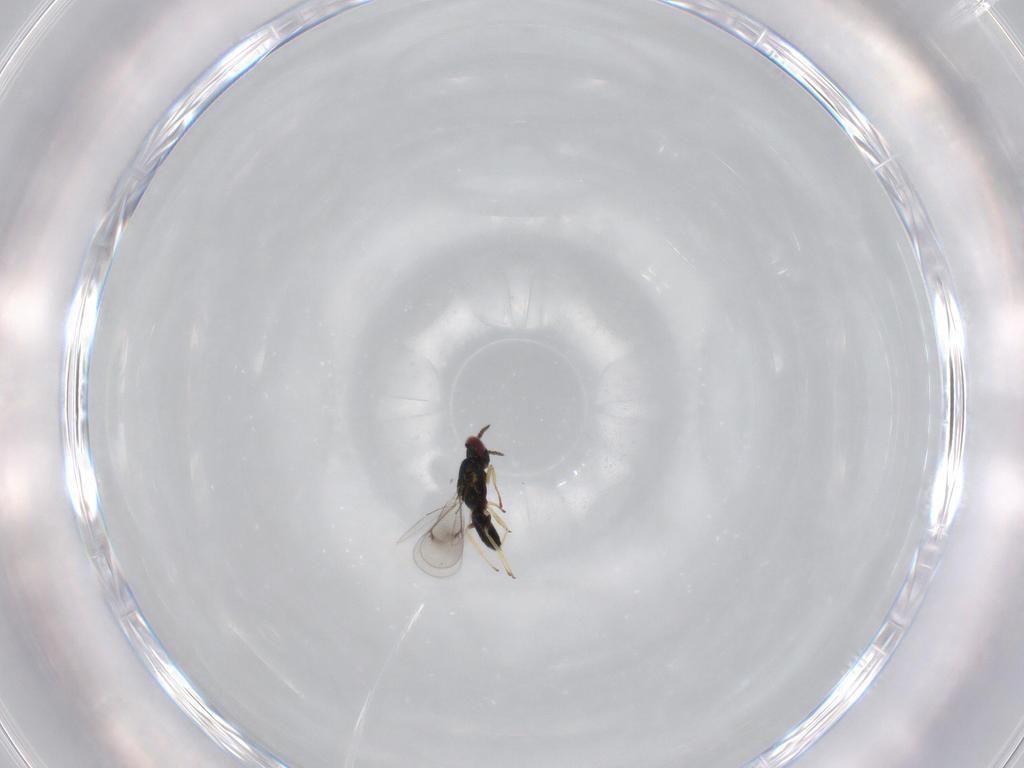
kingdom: Animalia
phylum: Arthropoda
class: Insecta
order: Hymenoptera
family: Eulophidae
